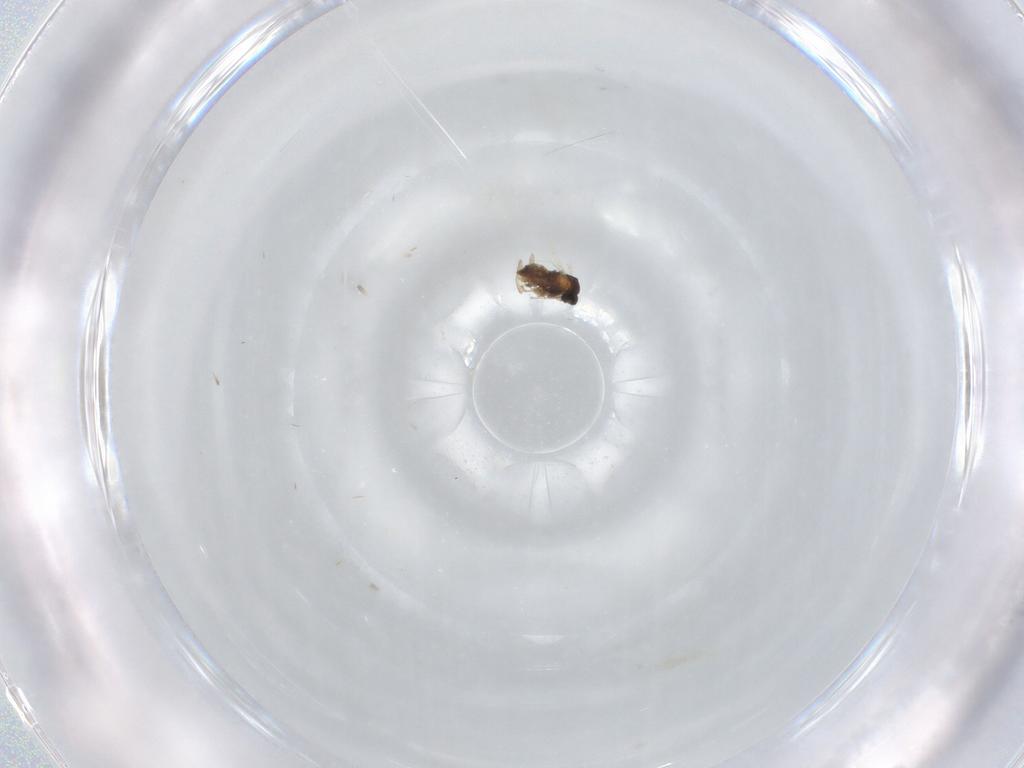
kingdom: Animalia
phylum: Arthropoda
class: Insecta
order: Diptera
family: Cecidomyiidae
